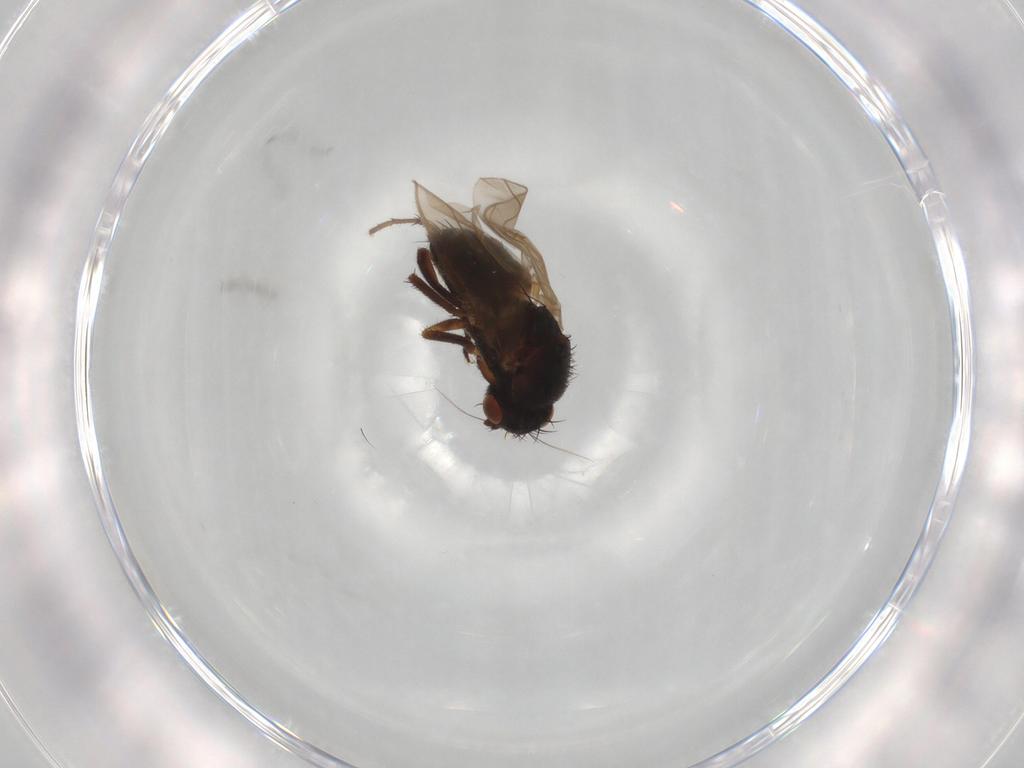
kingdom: Animalia
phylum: Arthropoda
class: Insecta
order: Diptera
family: Sphaeroceridae
